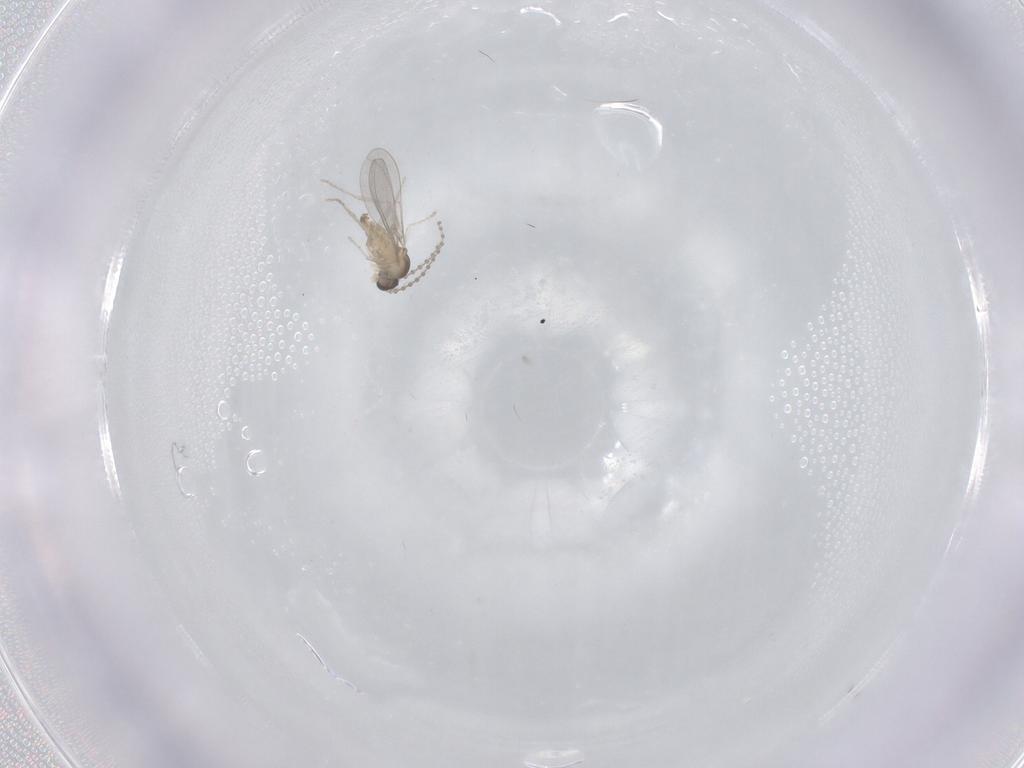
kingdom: Animalia
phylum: Arthropoda
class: Insecta
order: Diptera
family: Cecidomyiidae
